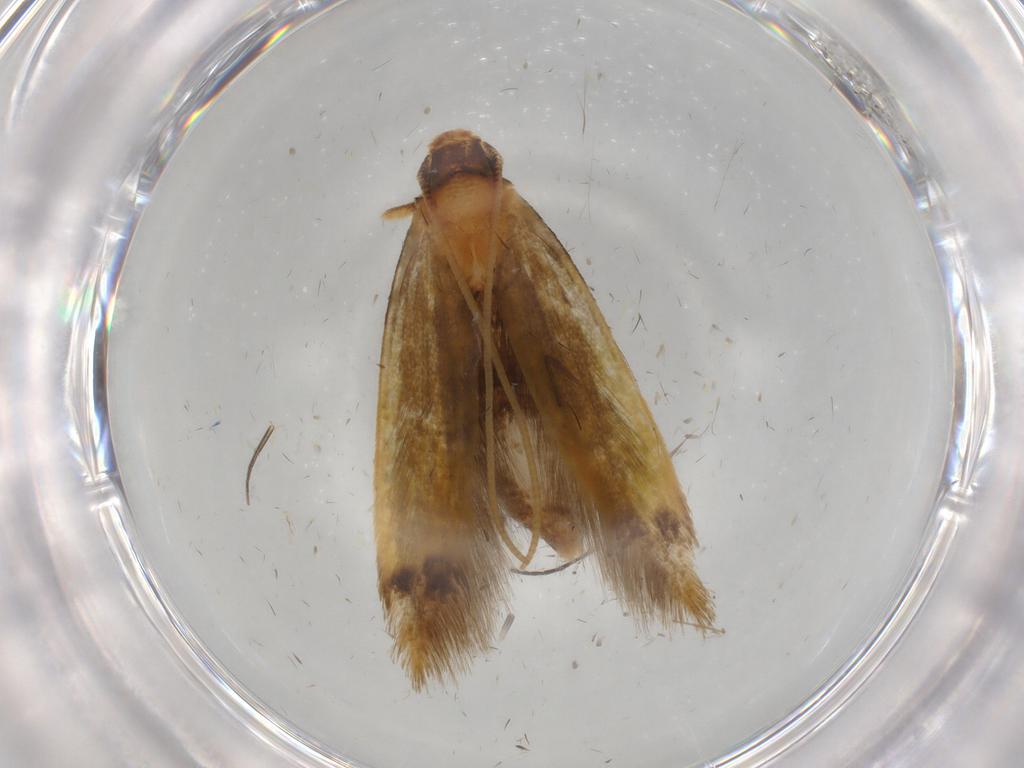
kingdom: Animalia
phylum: Arthropoda
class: Insecta
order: Lepidoptera
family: Tineidae
